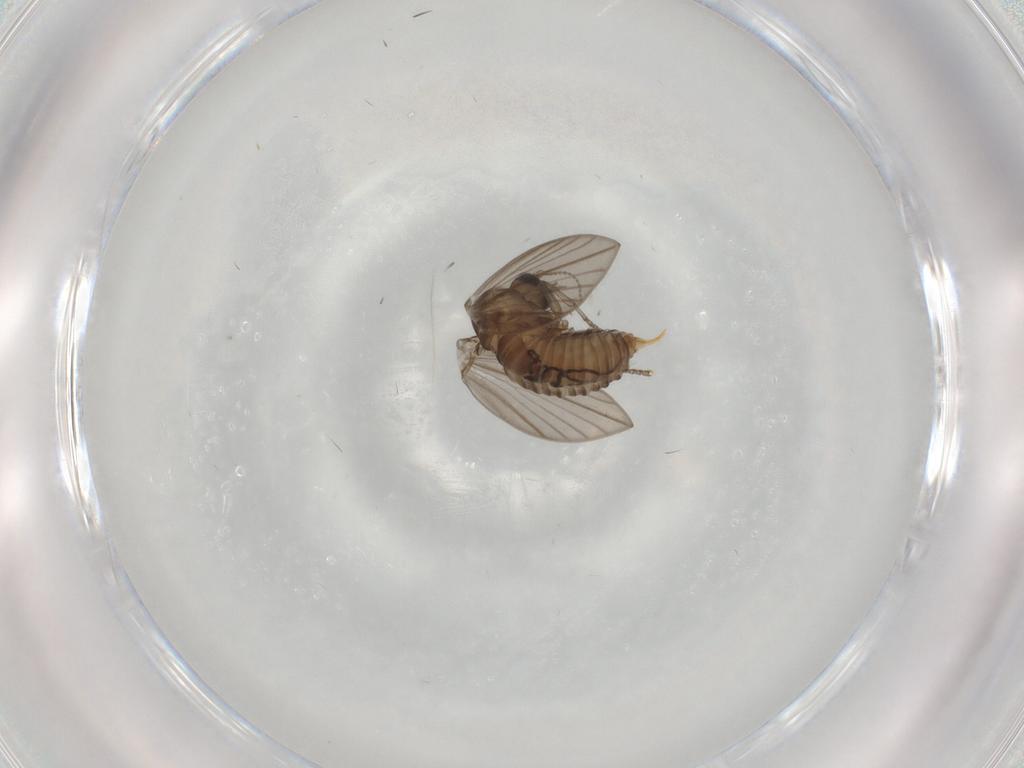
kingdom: Animalia
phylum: Arthropoda
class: Insecta
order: Diptera
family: Psychodidae
